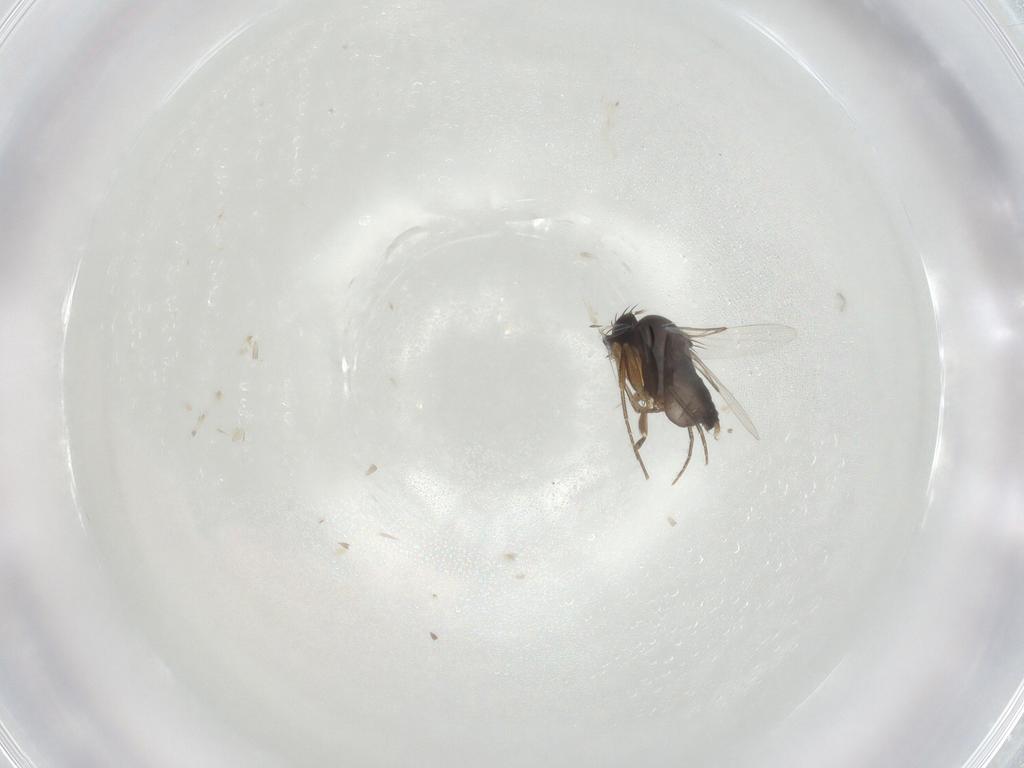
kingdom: Animalia
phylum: Arthropoda
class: Insecta
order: Diptera
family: Phoridae
